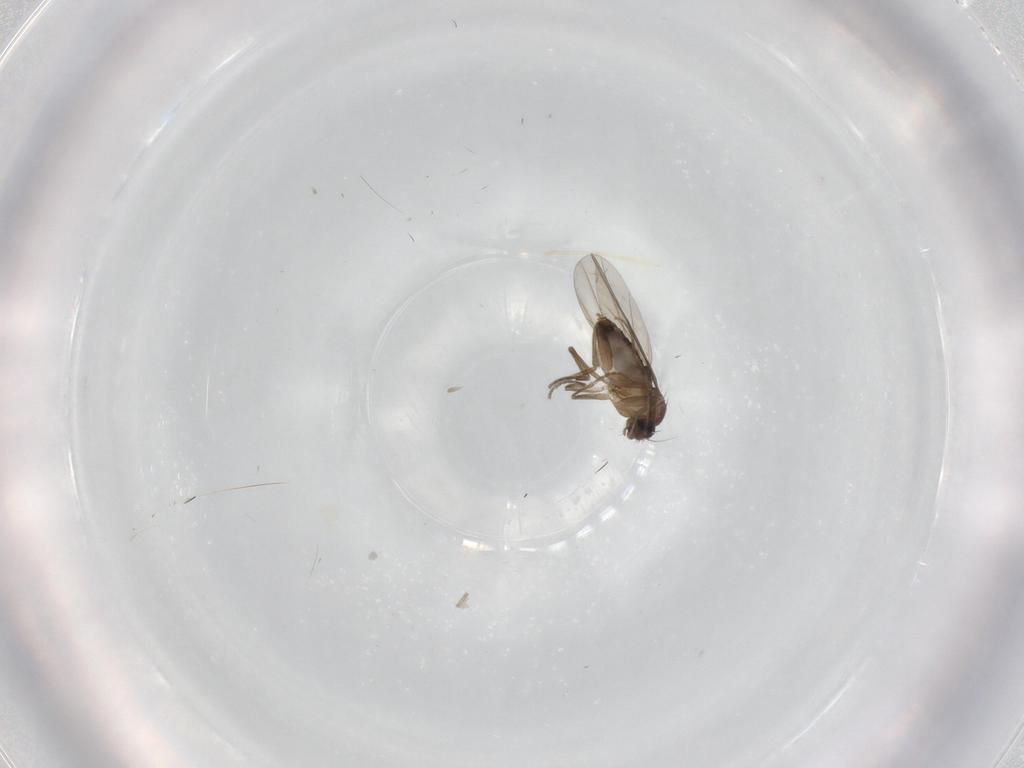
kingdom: Animalia
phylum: Arthropoda
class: Insecta
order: Diptera
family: Phoridae
